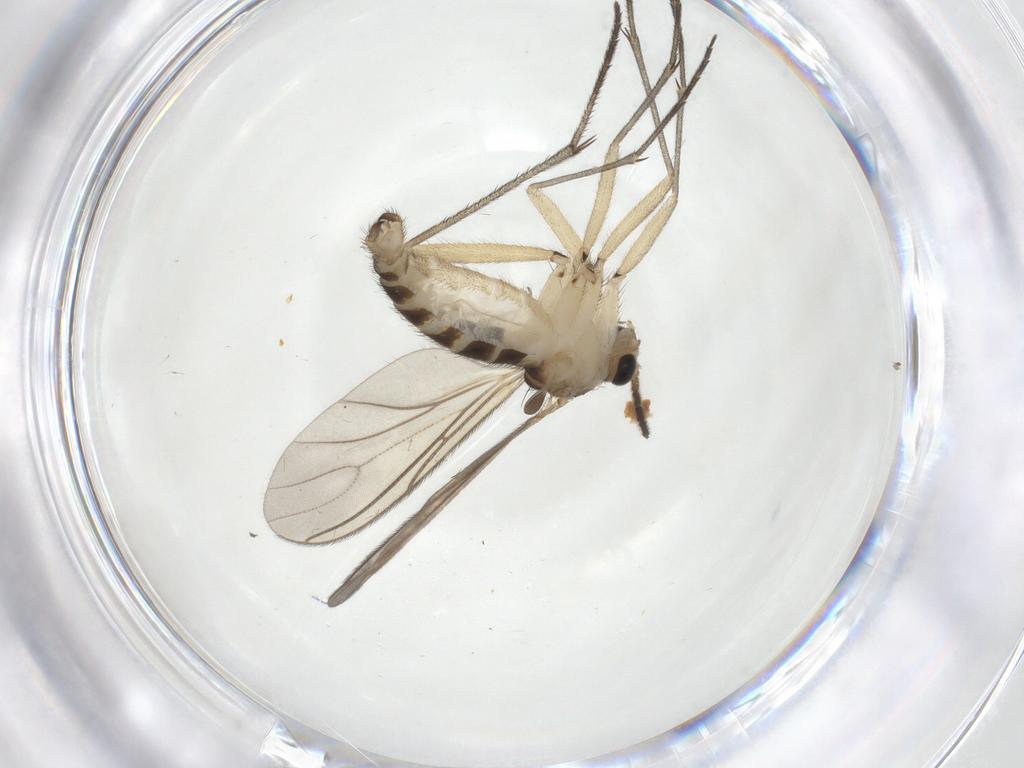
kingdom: Animalia
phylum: Arthropoda
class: Insecta
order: Diptera
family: Sciaridae
